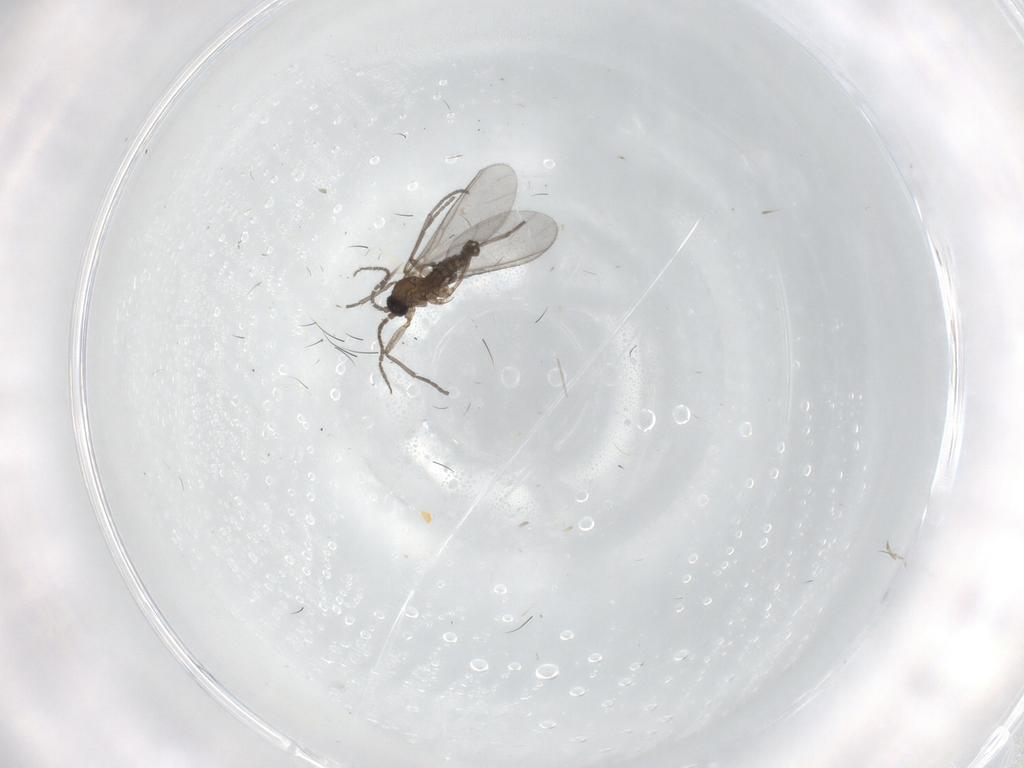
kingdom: Animalia
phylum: Arthropoda
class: Insecta
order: Diptera
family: Sciaridae
